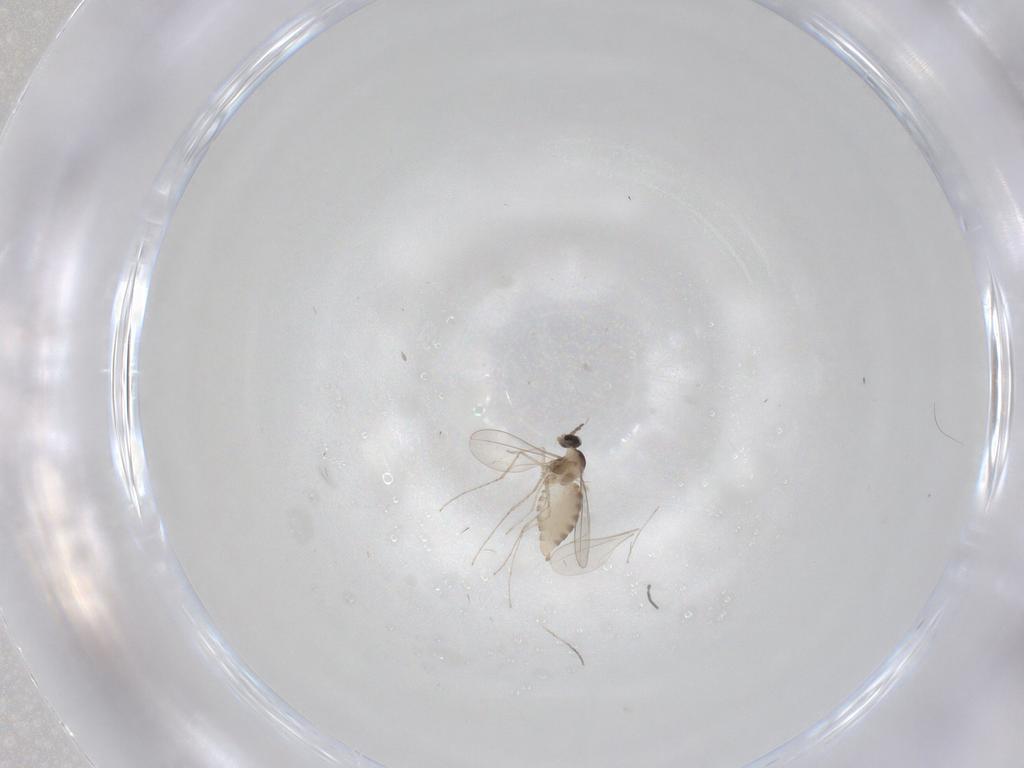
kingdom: Animalia
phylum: Arthropoda
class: Insecta
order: Diptera
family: Cecidomyiidae
